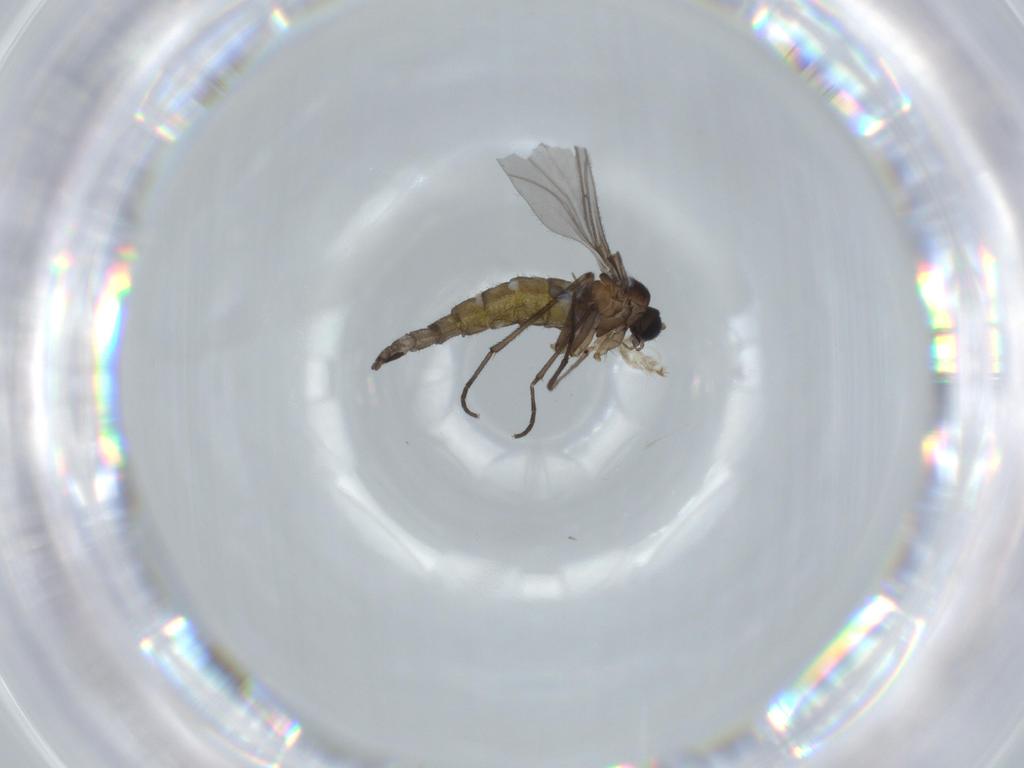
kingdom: Animalia
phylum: Arthropoda
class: Insecta
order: Diptera
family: Sciaridae
